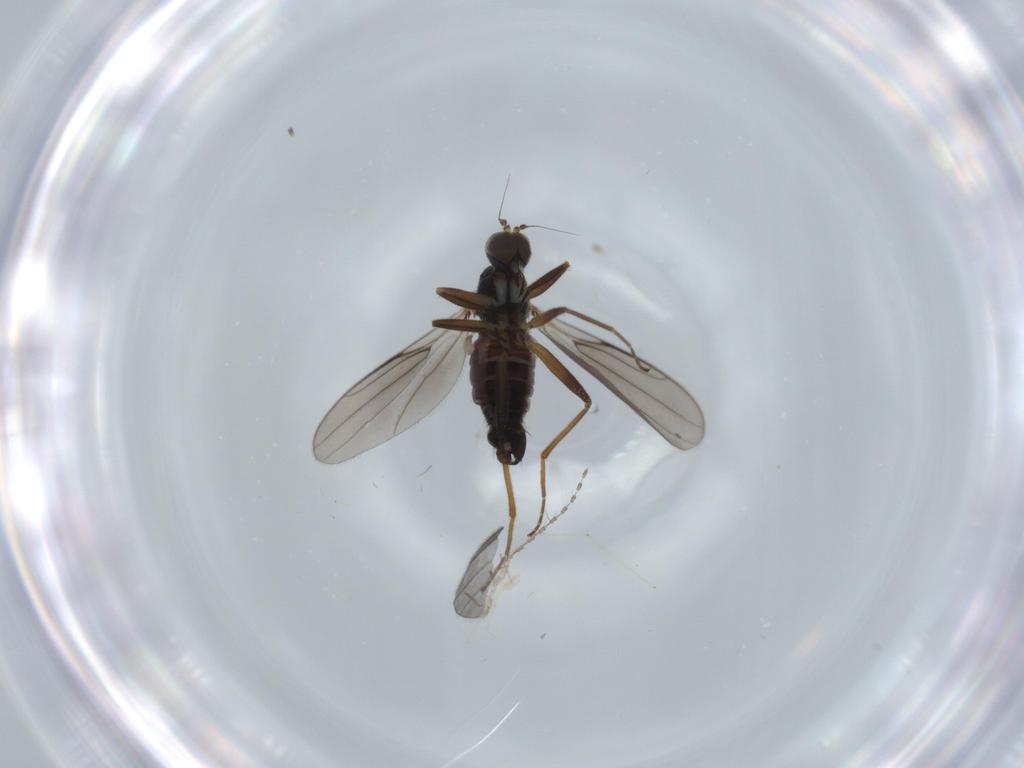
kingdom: Animalia
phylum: Arthropoda
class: Insecta
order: Diptera
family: Hybotidae
